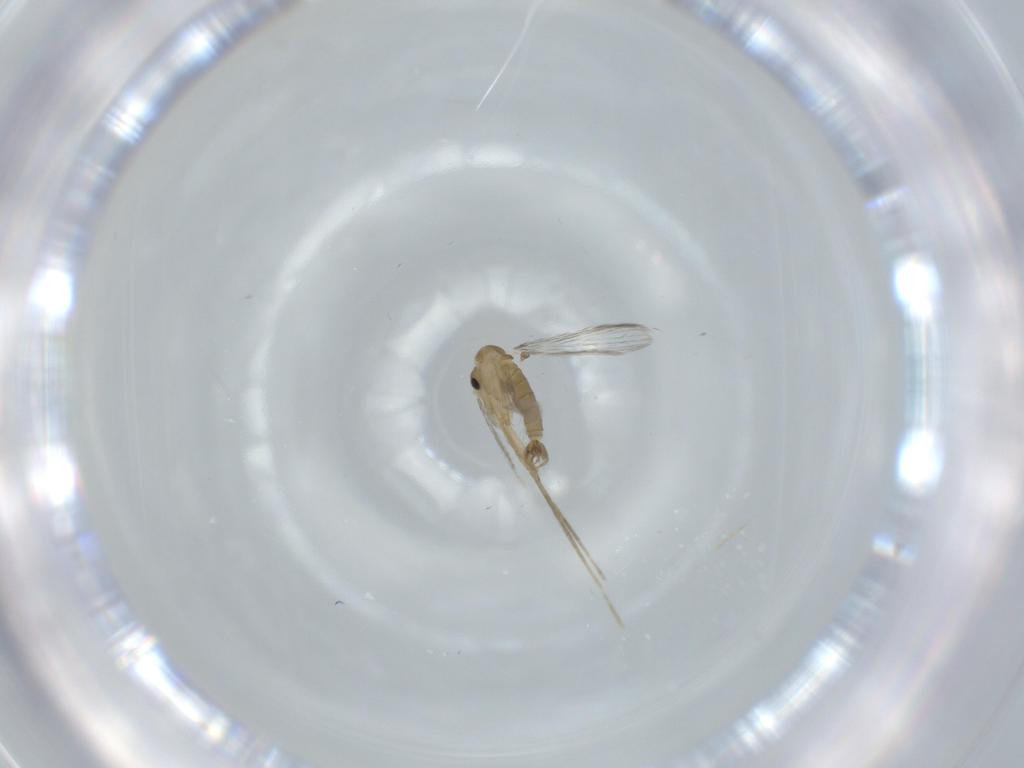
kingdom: Animalia
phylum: Arthropoda
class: Insecta
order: Diptera
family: Psychodidae
